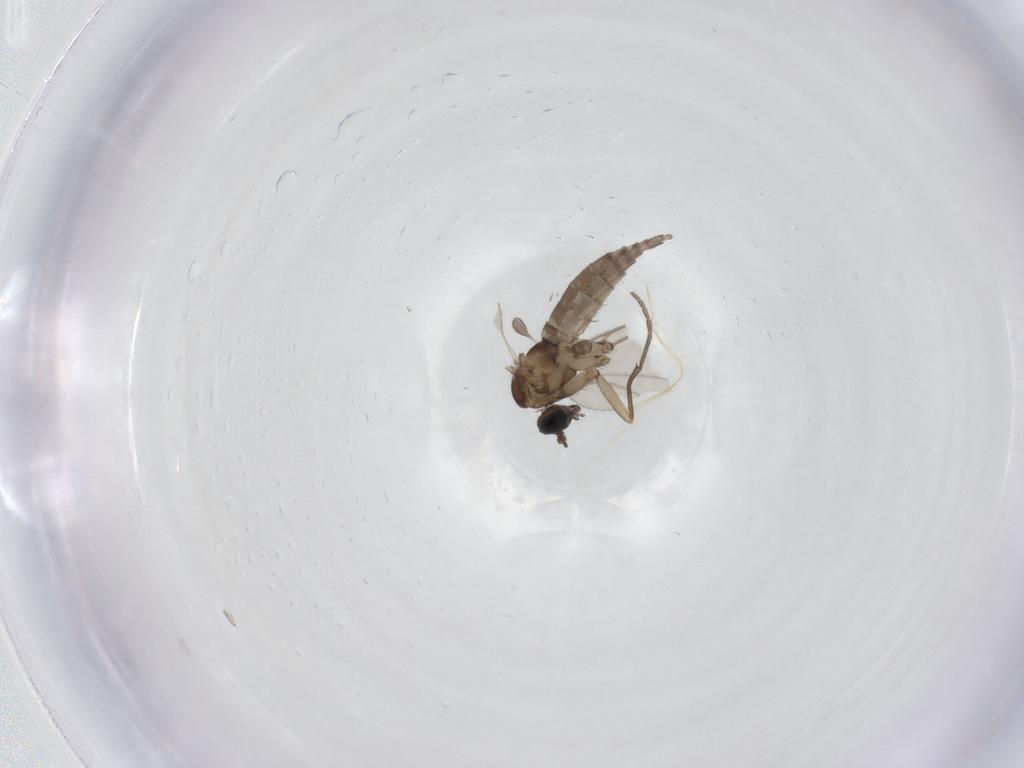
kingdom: Animalia
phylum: Arthropoda
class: Insecta
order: Diptera
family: Sciaridae
